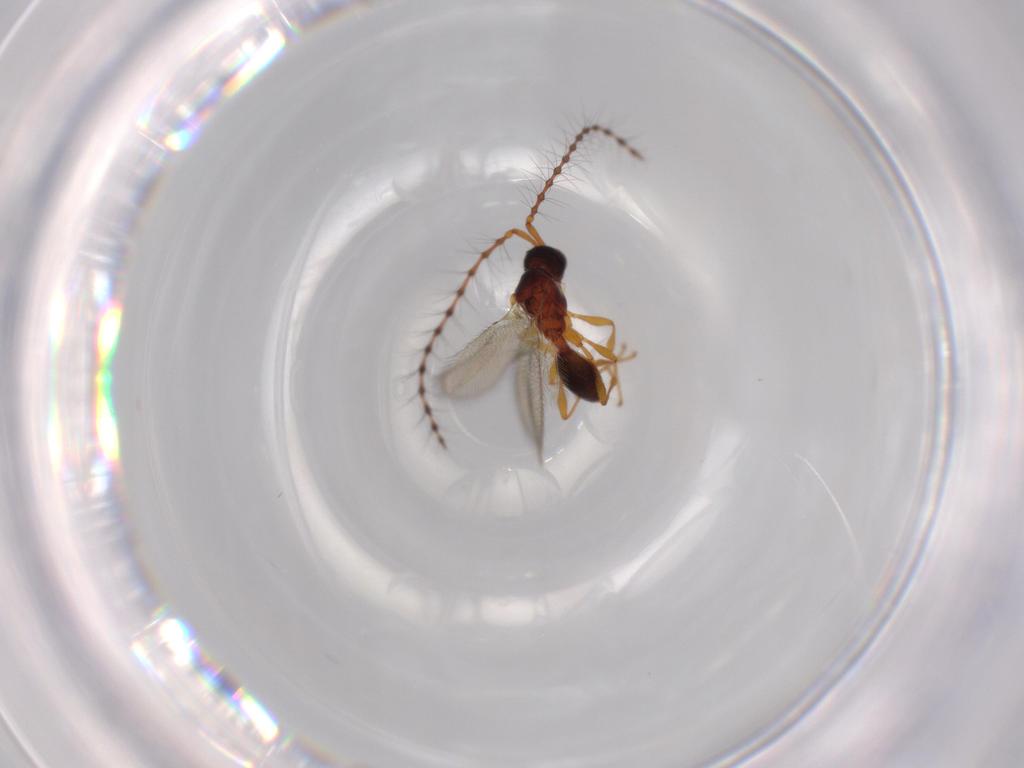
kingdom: Animalia
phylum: Arthropoda
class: Insecta
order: Hymenoptera
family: Diapriidae
